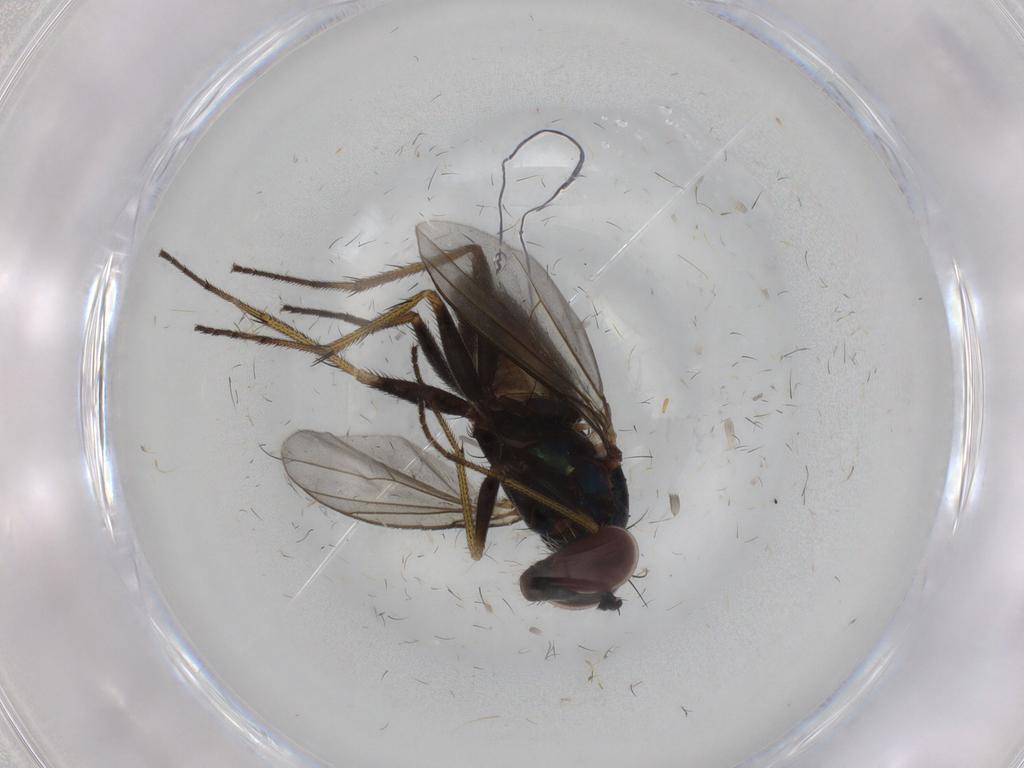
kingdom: Animalia
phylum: Arthropoda
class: Insecta
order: Diptera
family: Dolichopodidae
